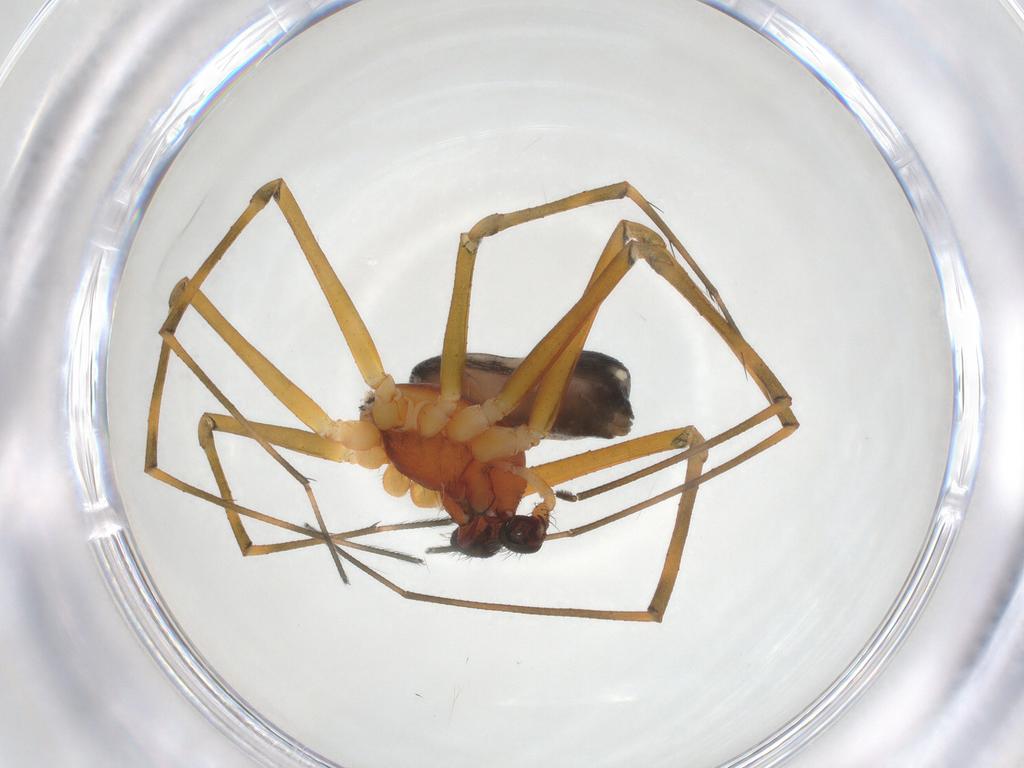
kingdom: Animalia
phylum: Arthropoda
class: Arachnida
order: Araneae
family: Linyphiidae
